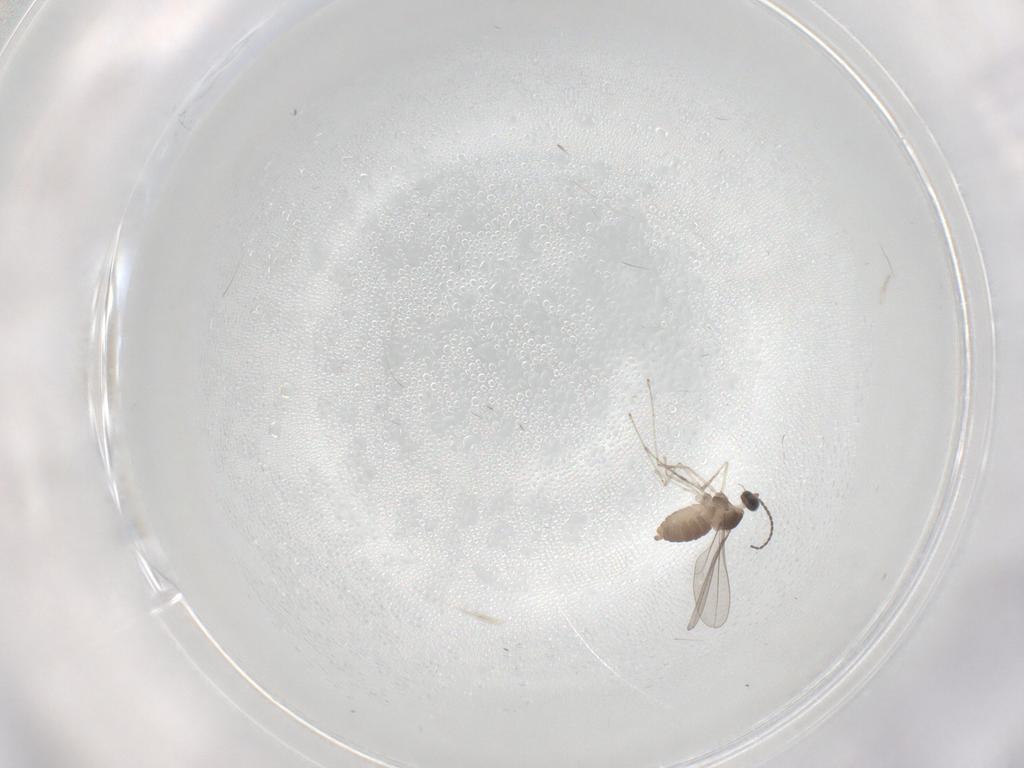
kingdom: Animalia
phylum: Arthropoda
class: Insecta
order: Diptera
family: Cecidomyiidae
